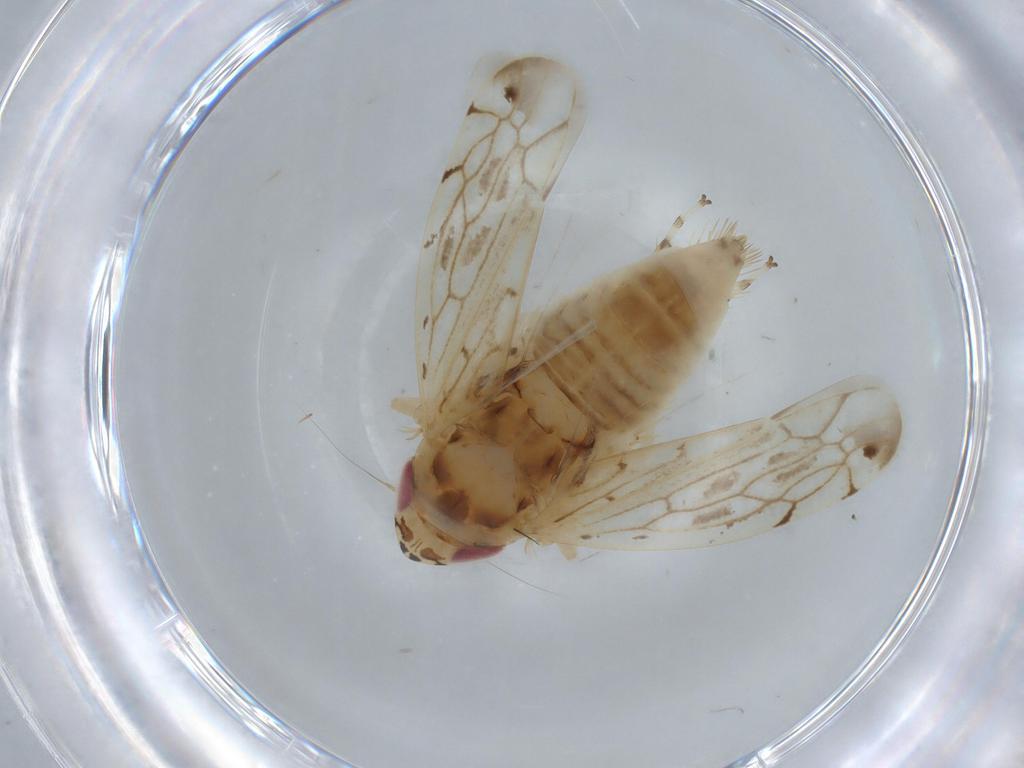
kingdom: Animalia
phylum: Arthropoda
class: Insecta
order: Hemiptera
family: Cicadellidae
